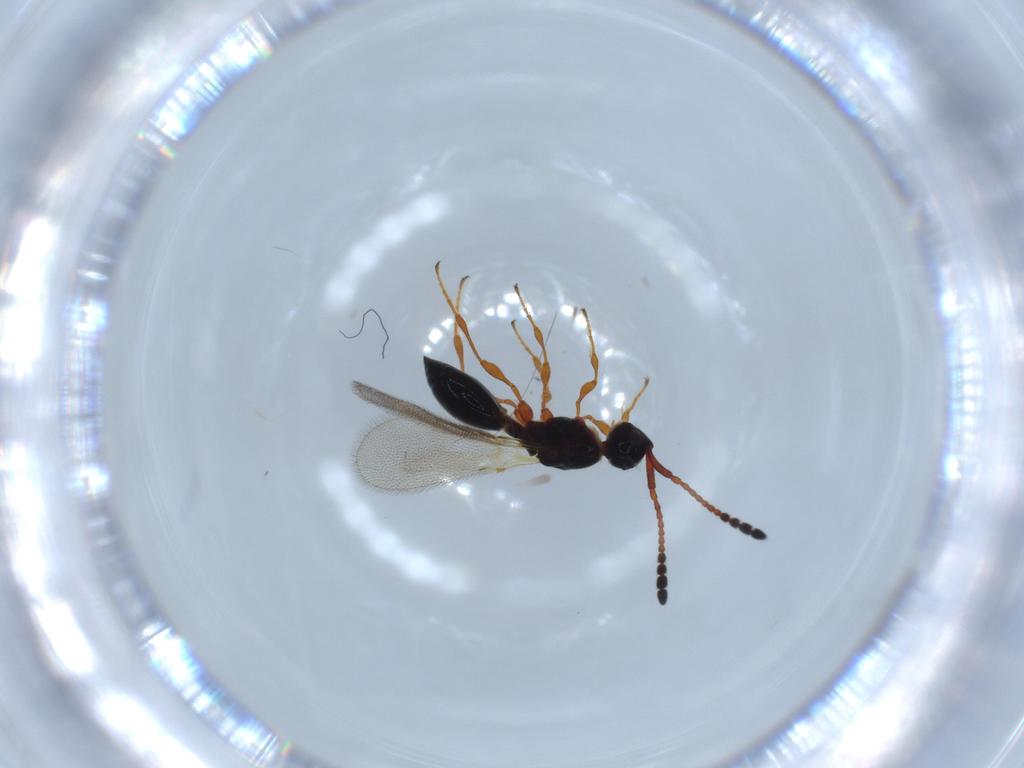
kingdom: Animalia
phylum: Arthropoda
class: Insecta
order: Hymenoptera
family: Diapriidae
